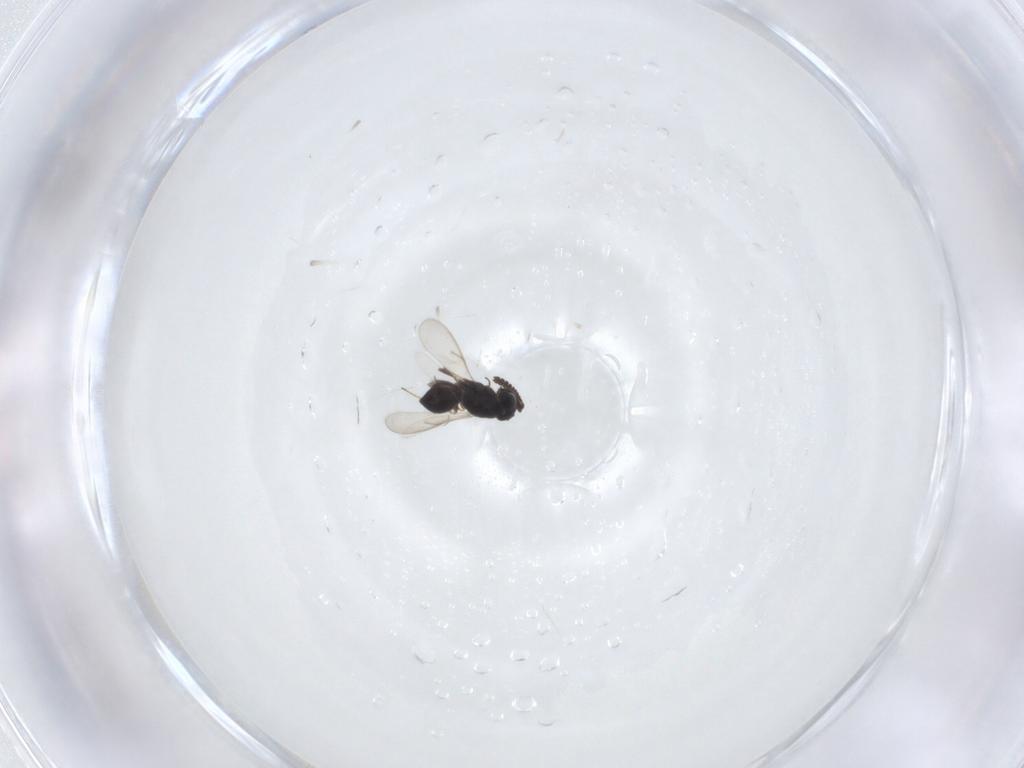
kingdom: Animalia
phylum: Arthropoda
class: Insecta
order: Hymenoptera
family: Scelionidae
